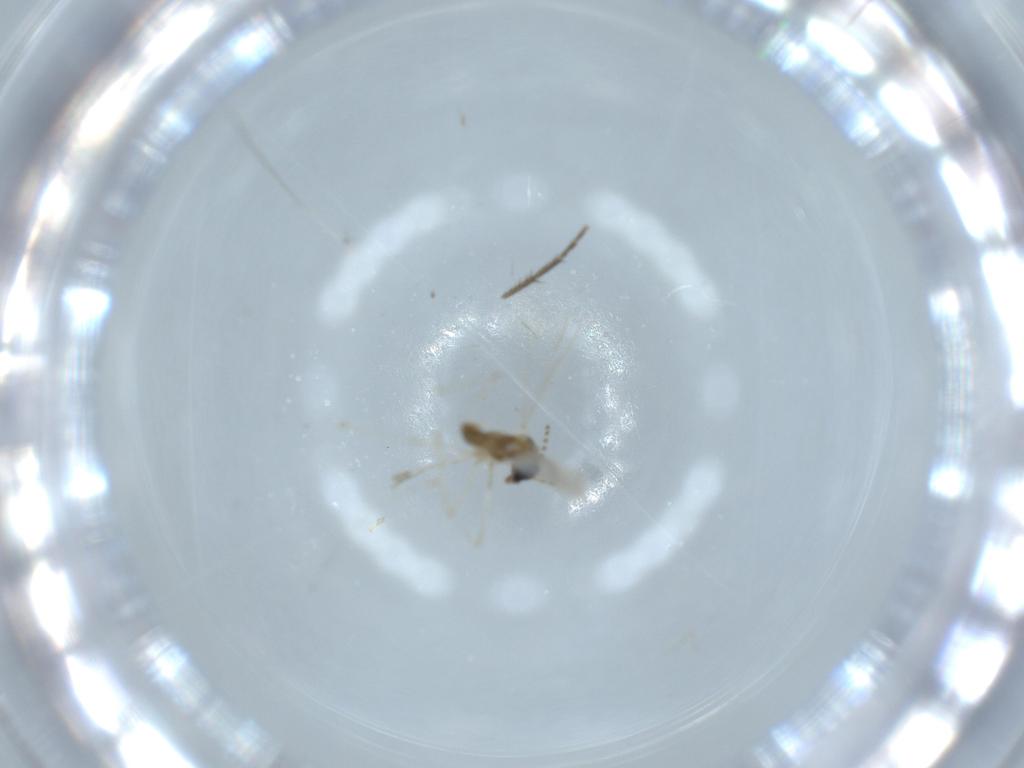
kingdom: Animalia
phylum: Arthropoda
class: Insecta
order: Diptera
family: Cecidomyiidae
